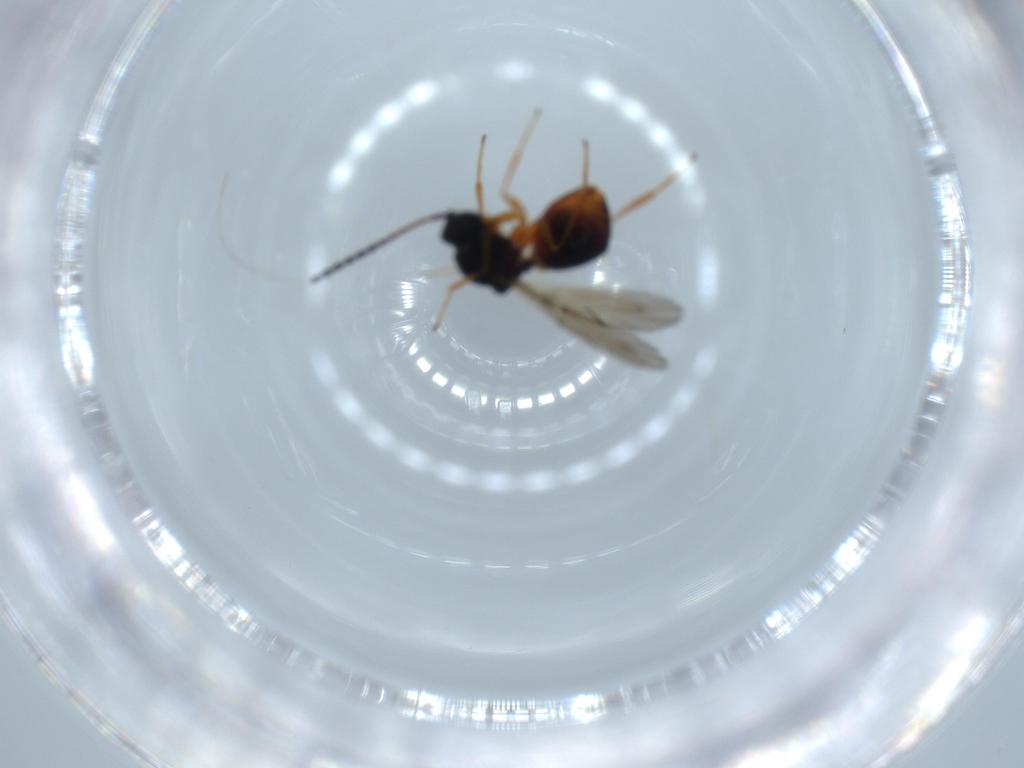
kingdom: Animalia
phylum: Arthropoda
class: Insecta
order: Hymenoptera
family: Figitidae
